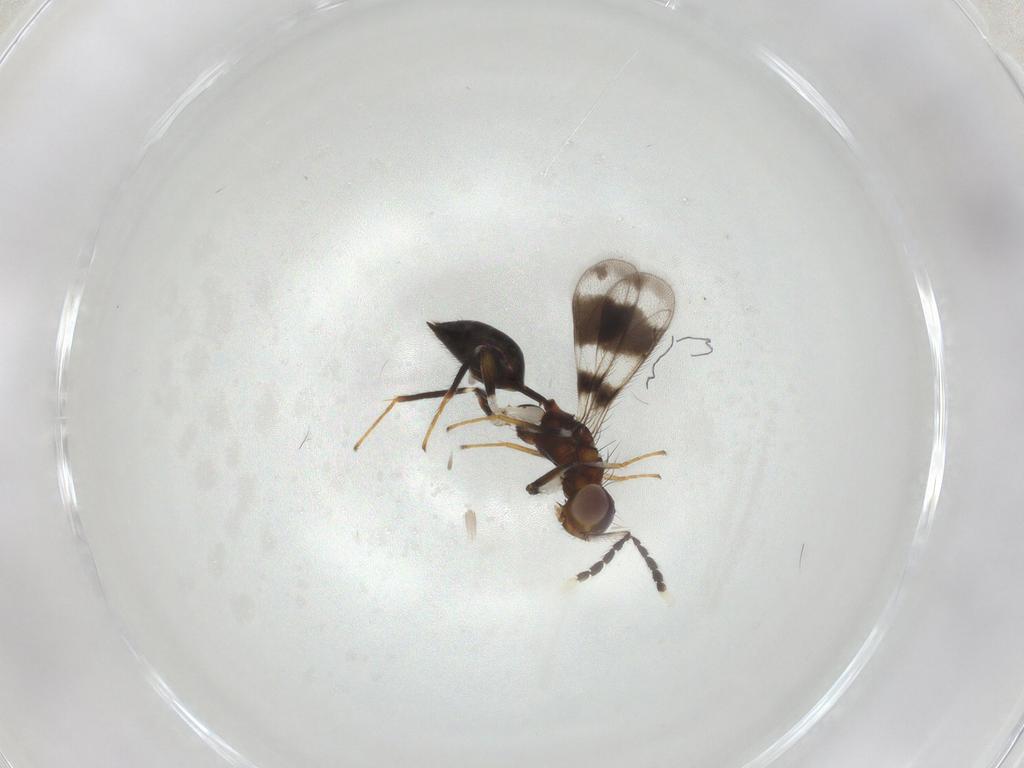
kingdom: Animalia
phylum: Arthropoda
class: Insecta
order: Hymenoptera
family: Eulophidae
